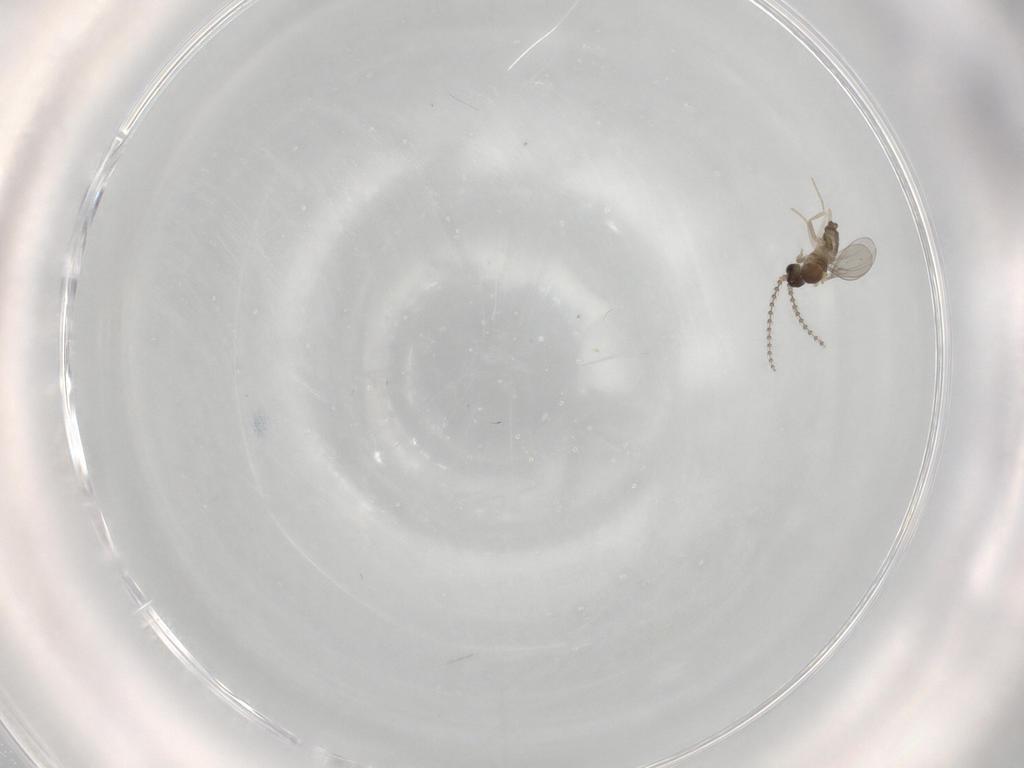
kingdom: Animalia
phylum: Arthropoda
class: Insecta
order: Diptera
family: Cecidomyiidae
